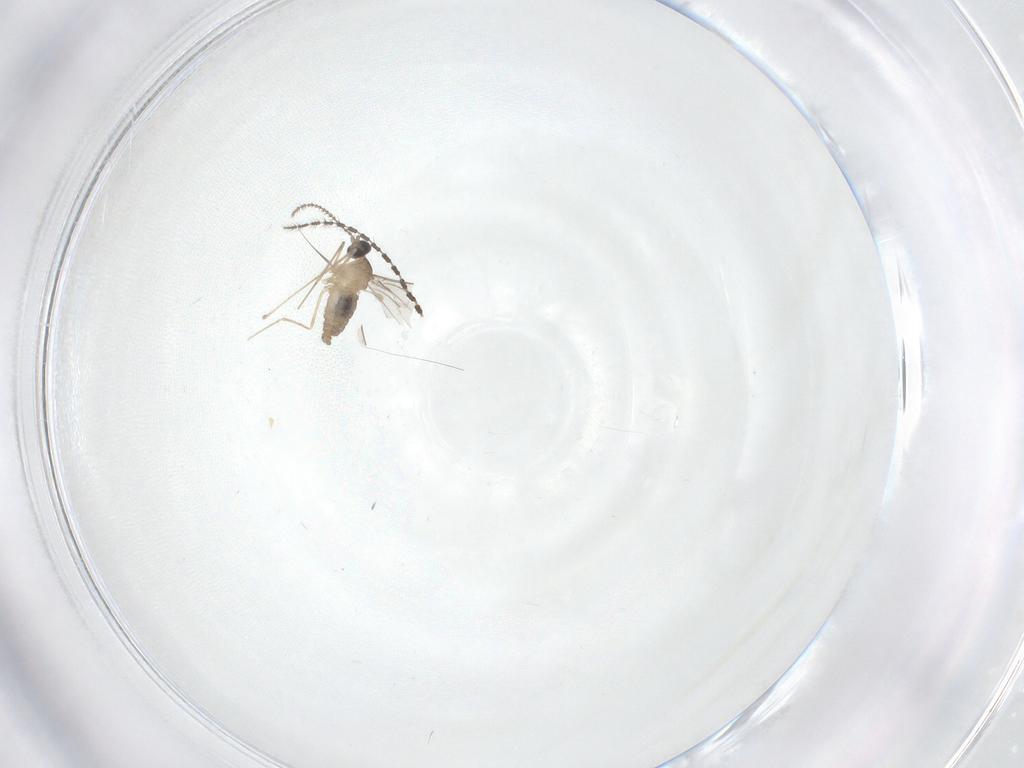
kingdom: Animalia
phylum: Arthropoda
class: Insecta
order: Diptera
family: Cecidomyiidae
